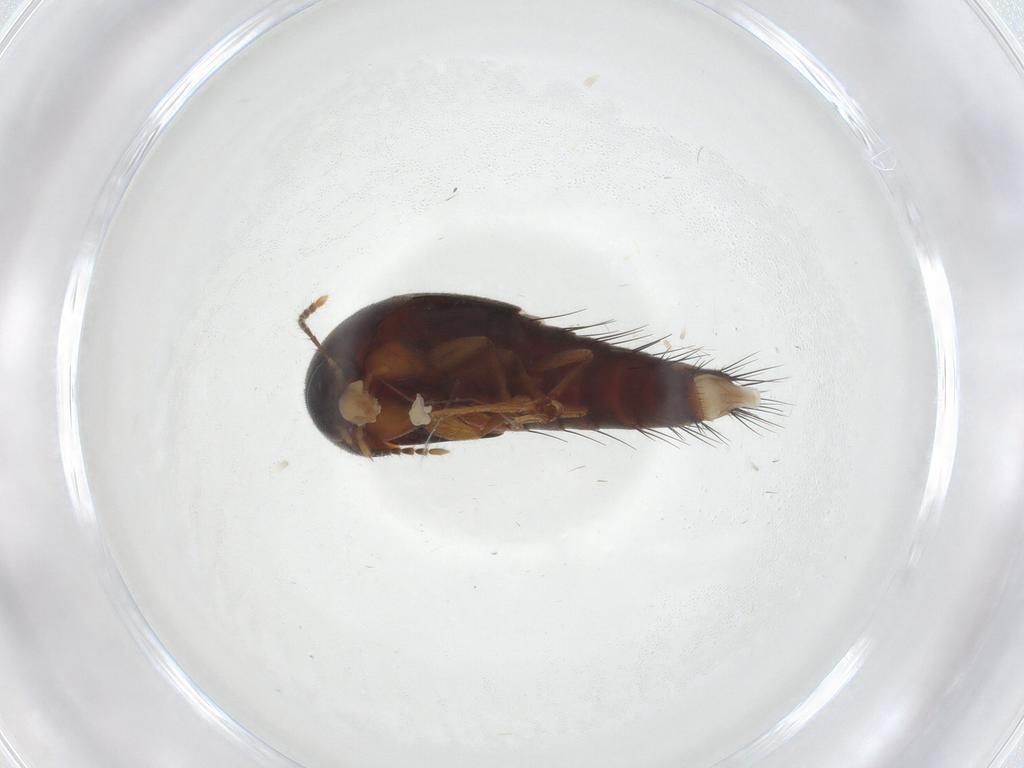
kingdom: Animalia
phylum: Arthropoda
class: Insecta
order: Coleoptera
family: Staphylinidae
